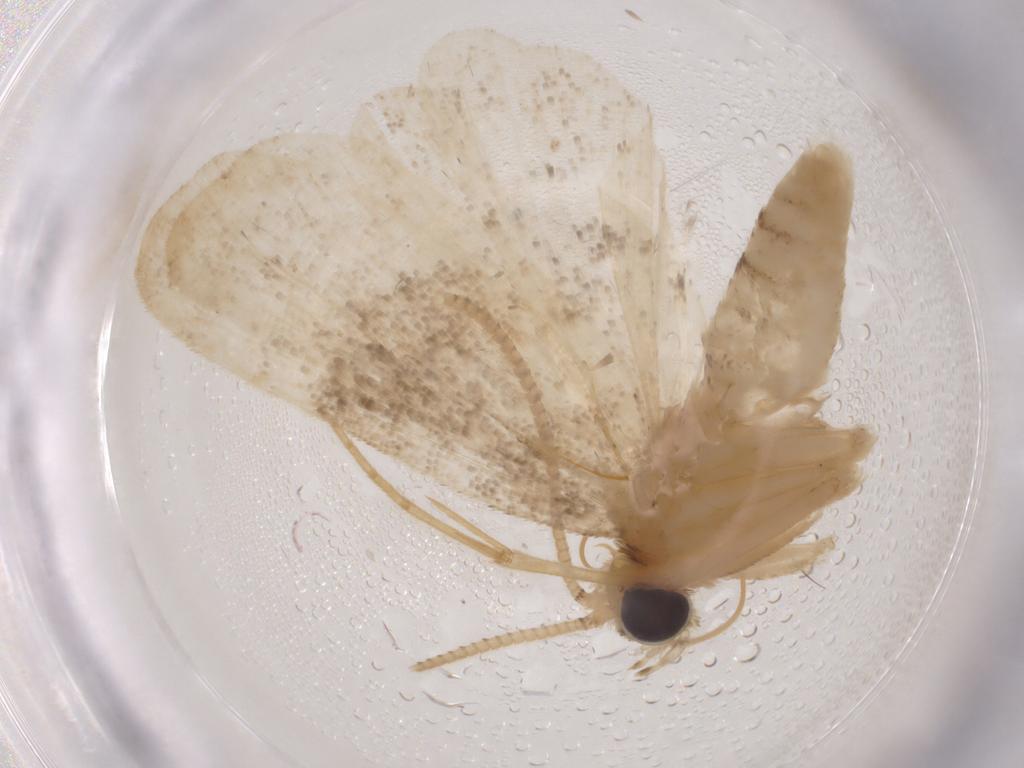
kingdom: Animalia
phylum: Arthropoda
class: Insecta
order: Lepidoptera
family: Crambidae
